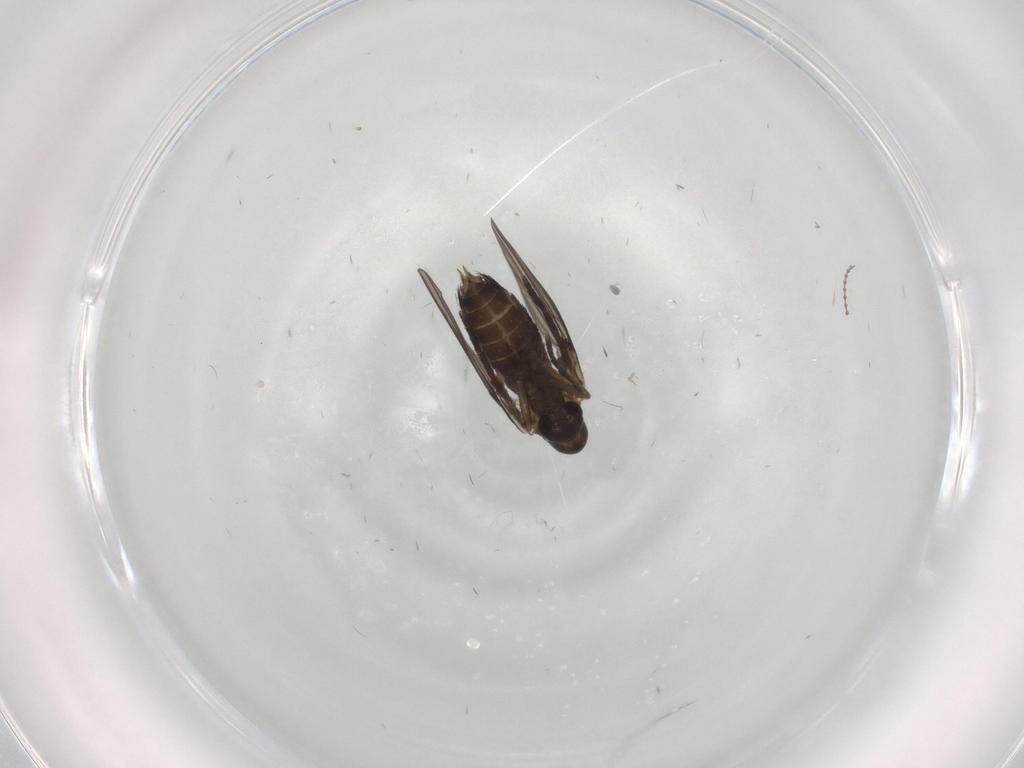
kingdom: Animalia
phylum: Arthropoda
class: Insecta
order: Diptera
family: Cecidomyiidae
